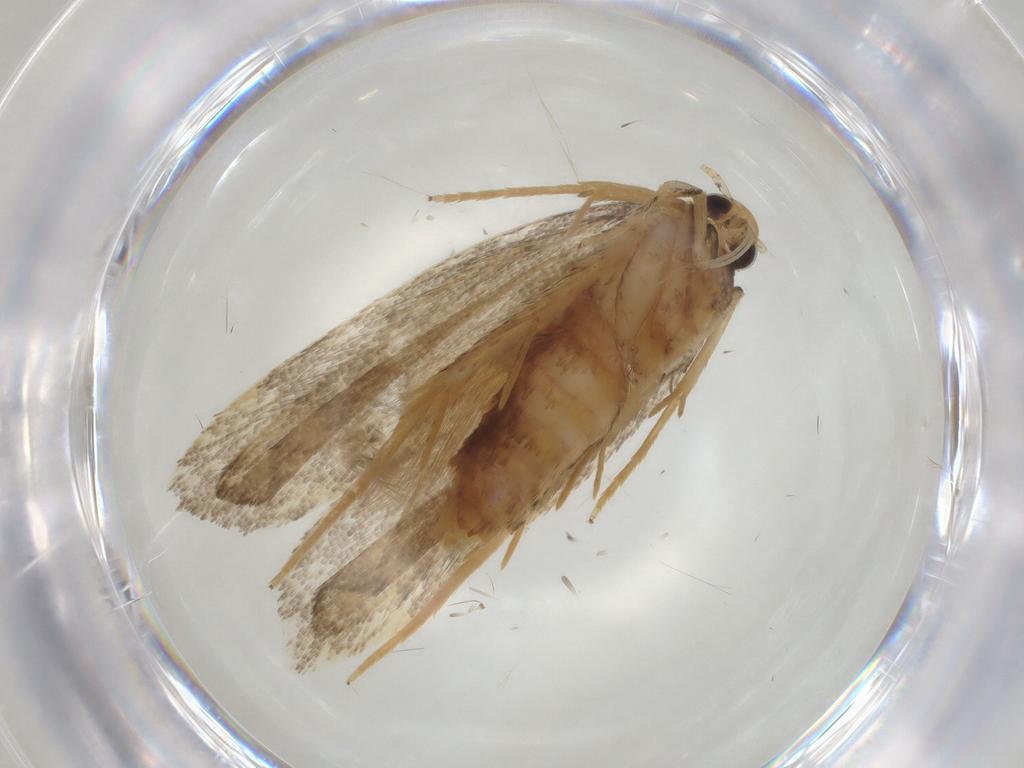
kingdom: Animalia
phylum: Arthropoda
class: Insecta
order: Lepidoptera
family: Lecithoceridae
